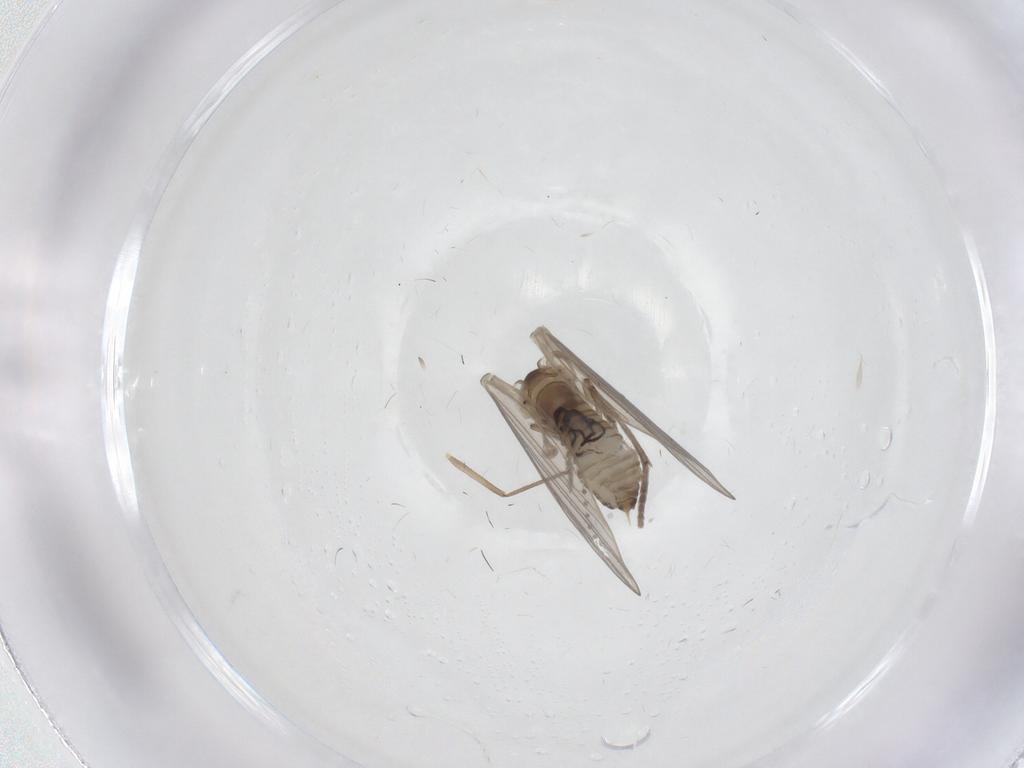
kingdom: Animalia
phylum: Arthropoda
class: Insecta
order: Diptera
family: Psychodidae
